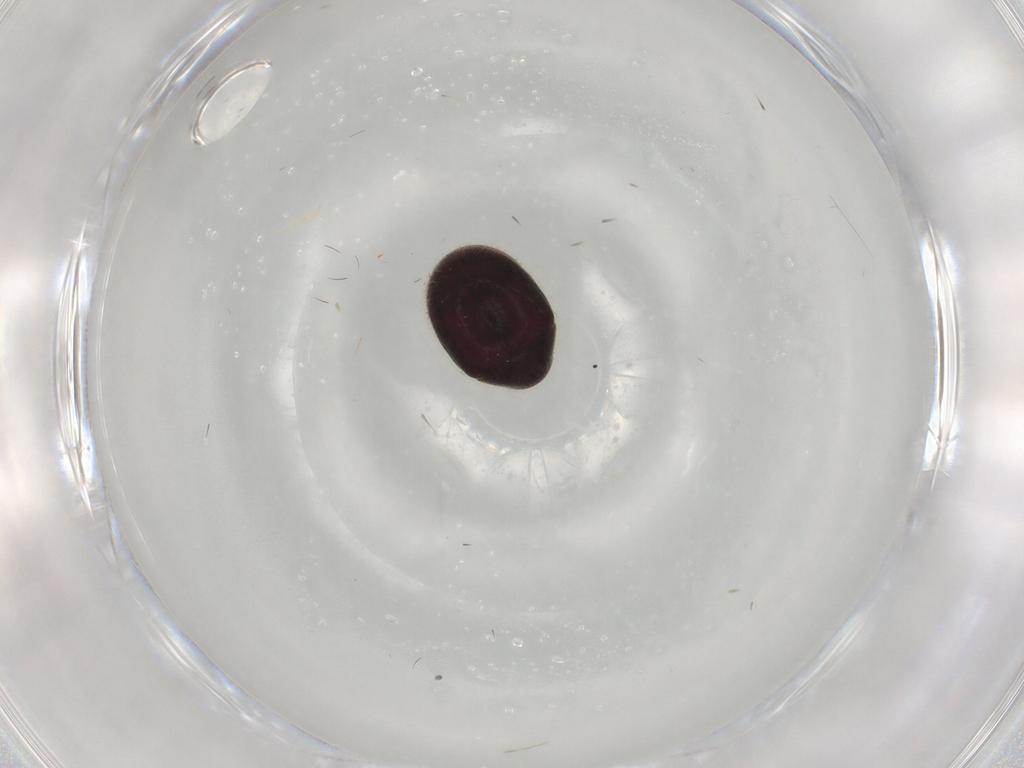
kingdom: Animalia
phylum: Arthropoda
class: Insecta
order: Coleoptera
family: Ptinidae
